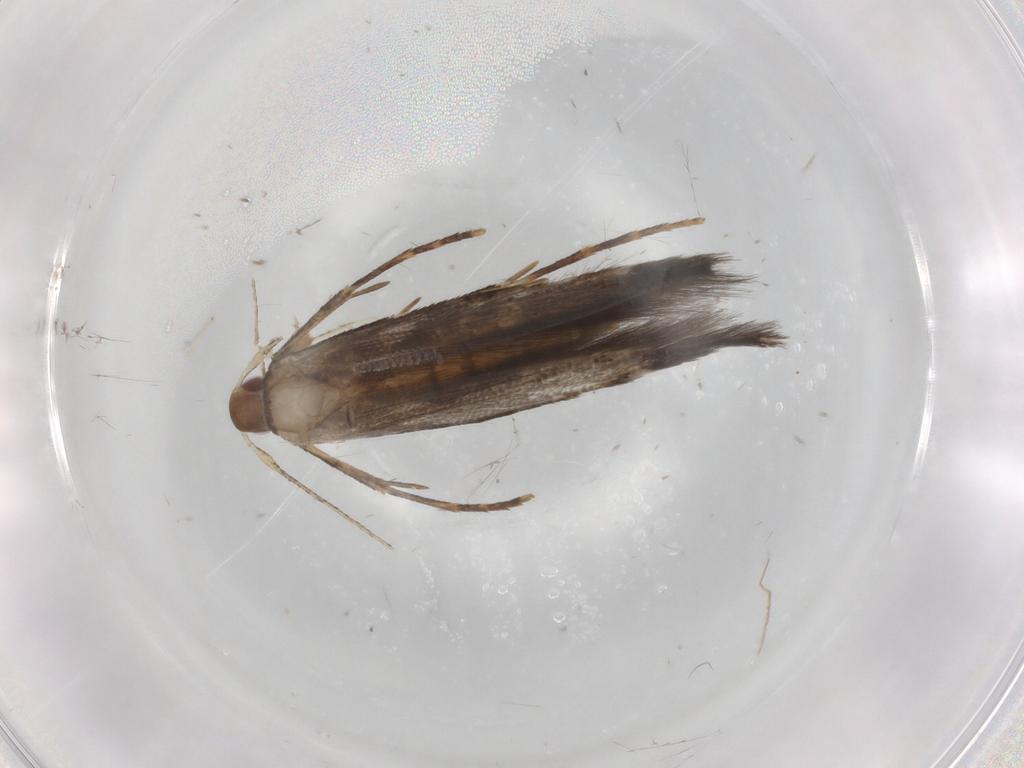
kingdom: Animalia
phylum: Arthropoda
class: Insecta
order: Lepidoptera
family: Cosmopterigidae
